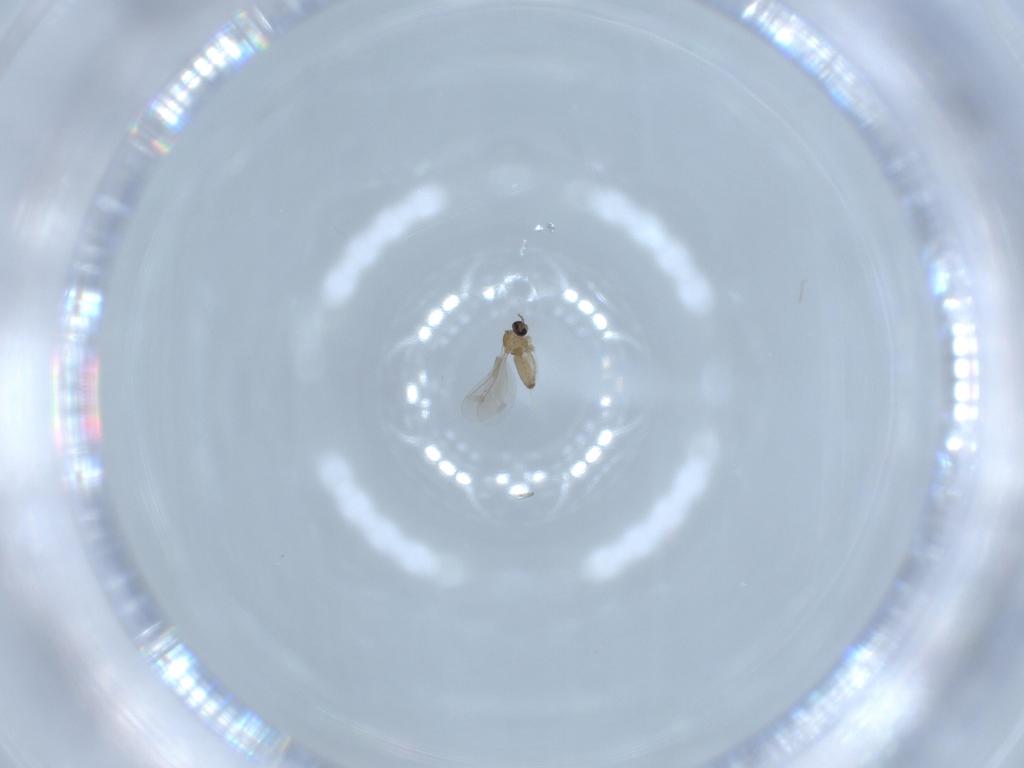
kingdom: Animalia
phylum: Arthropoda
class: Insecta
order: Diptera
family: Cecidomyiidae
